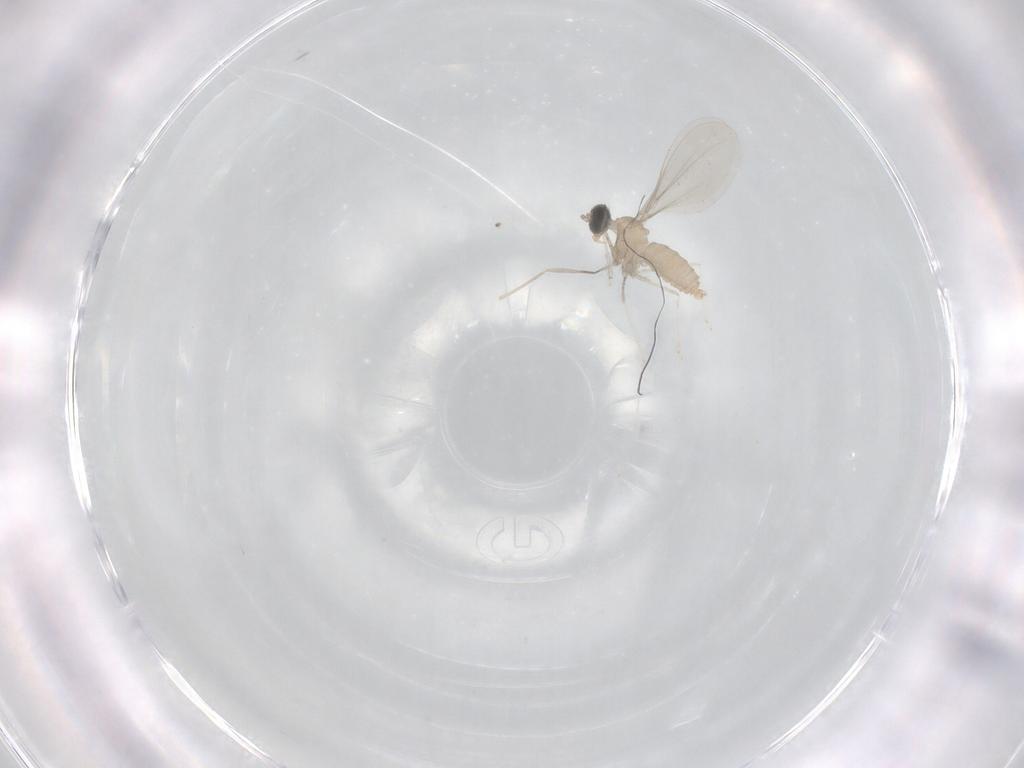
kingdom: Animalia
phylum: Arthropoda
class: Insecta
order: Diptera
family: Cecidomyiidae
